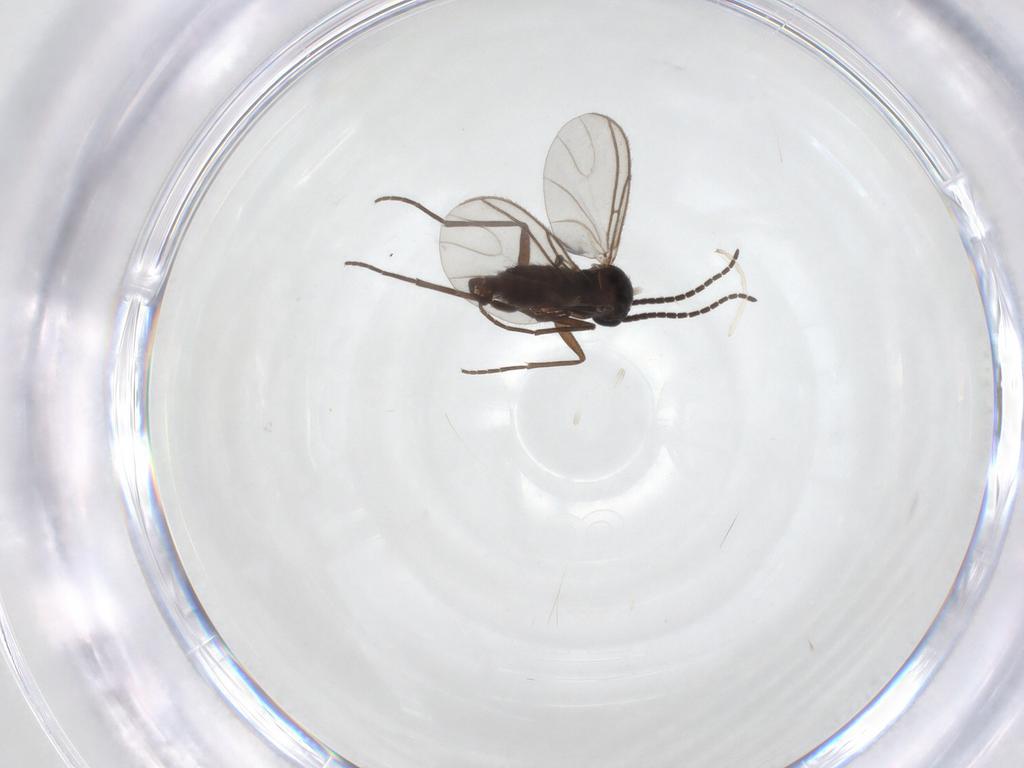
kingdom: Animalia
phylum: Arthropoda
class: Insecta
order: Diptera
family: Sciaridae
